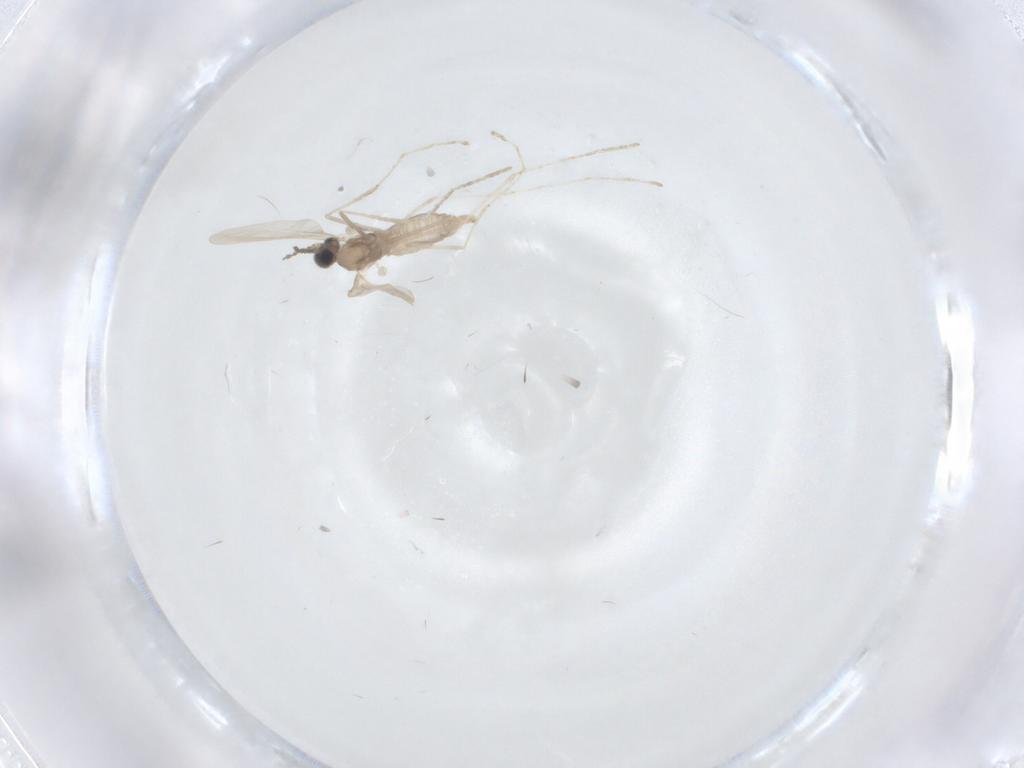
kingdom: Animalia
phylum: Arthropoda
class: Insecta
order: Diptera
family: Cecidomyiidae
